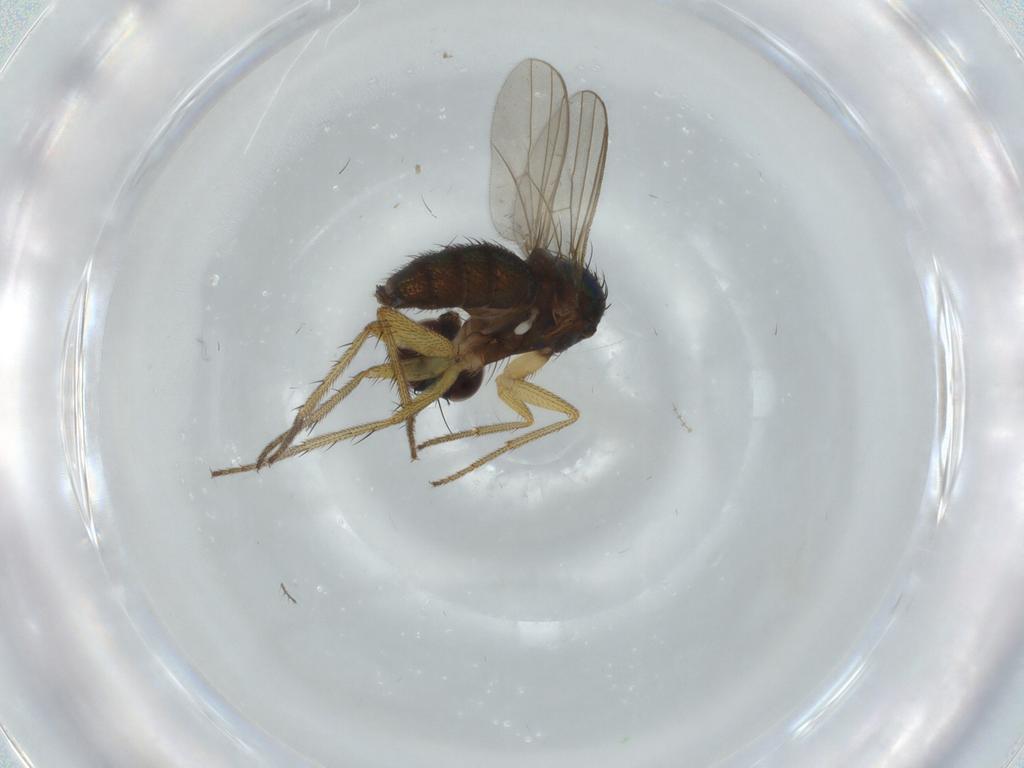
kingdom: Animalia
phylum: Arthropoda
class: Insecta
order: Diptera
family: Dolichopodidae
